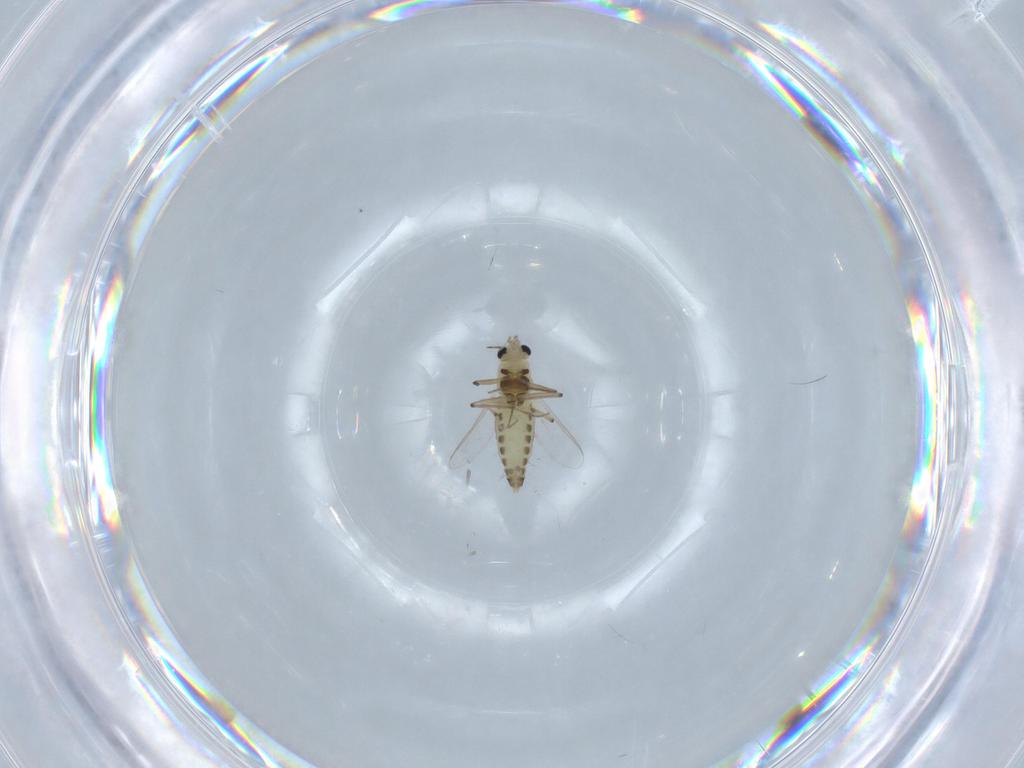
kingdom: Animalia
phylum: Arthropoda
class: Insecta
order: Diptera
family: Chironomidae
